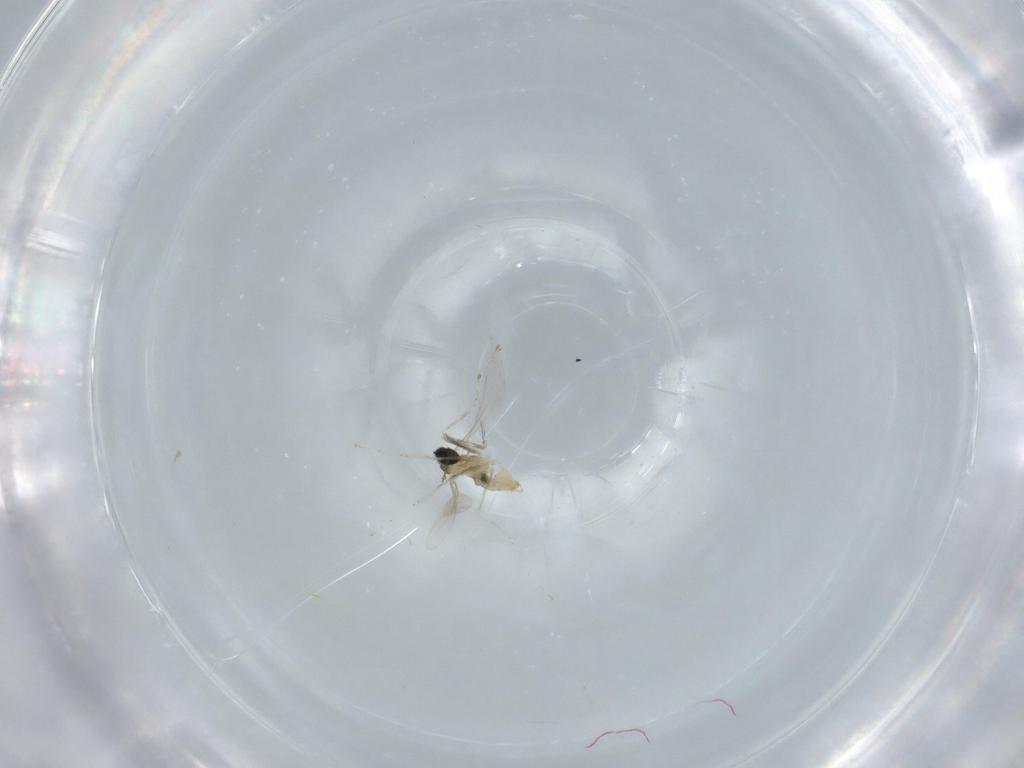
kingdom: Animalia
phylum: Arthropoda
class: Insecta
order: Diptera
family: Cecidomyiidae
